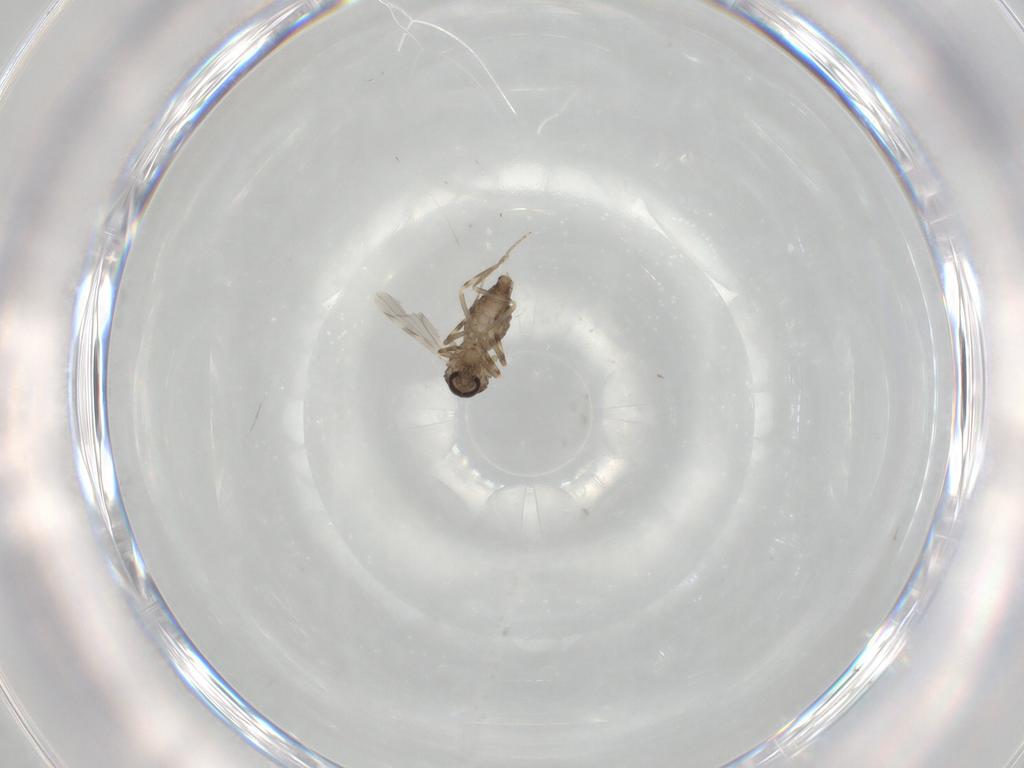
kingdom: Animalia
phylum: Arthropoda
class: Insecta
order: Diptera
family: Ceratopogonidae
